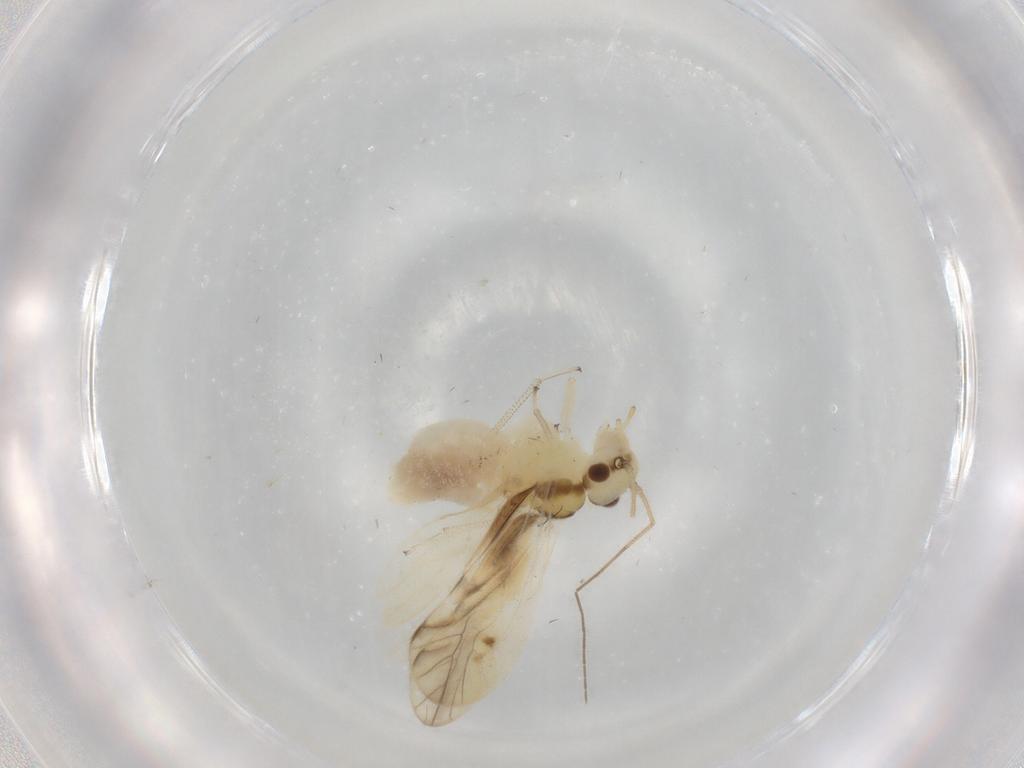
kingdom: Animalia
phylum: Arthropoda
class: Insecta
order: Psocodea
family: Caeciliusidae
